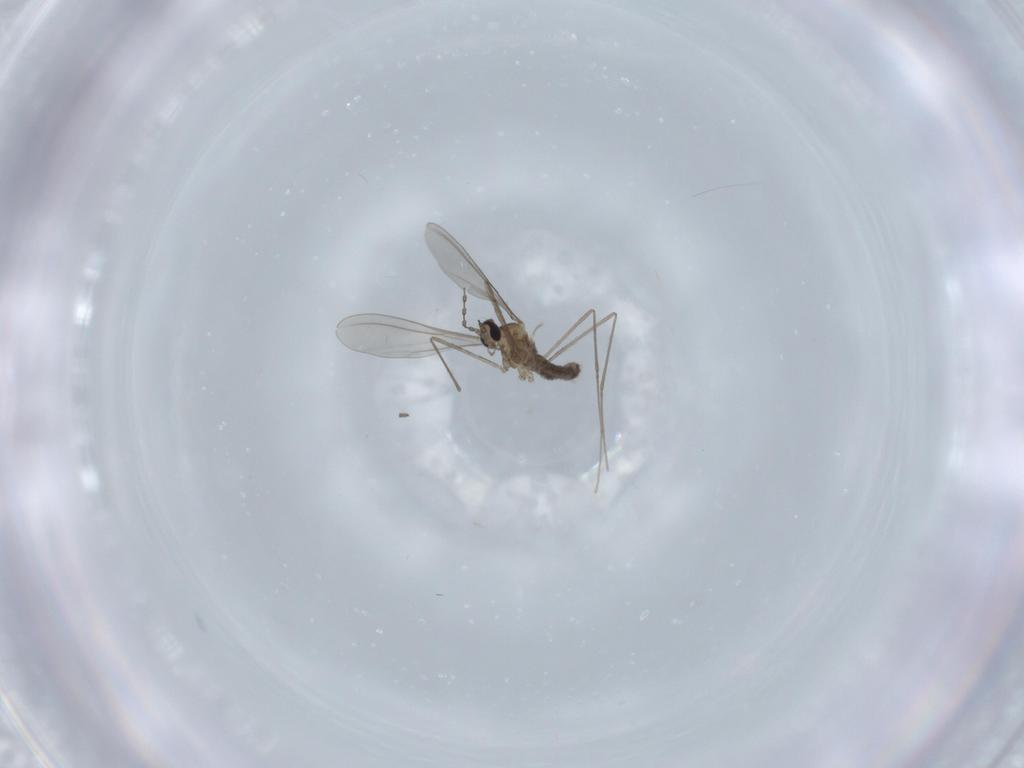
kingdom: Animalia
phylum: Arthropoda
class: Insecta
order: Diptera
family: Cecidomyiidae
